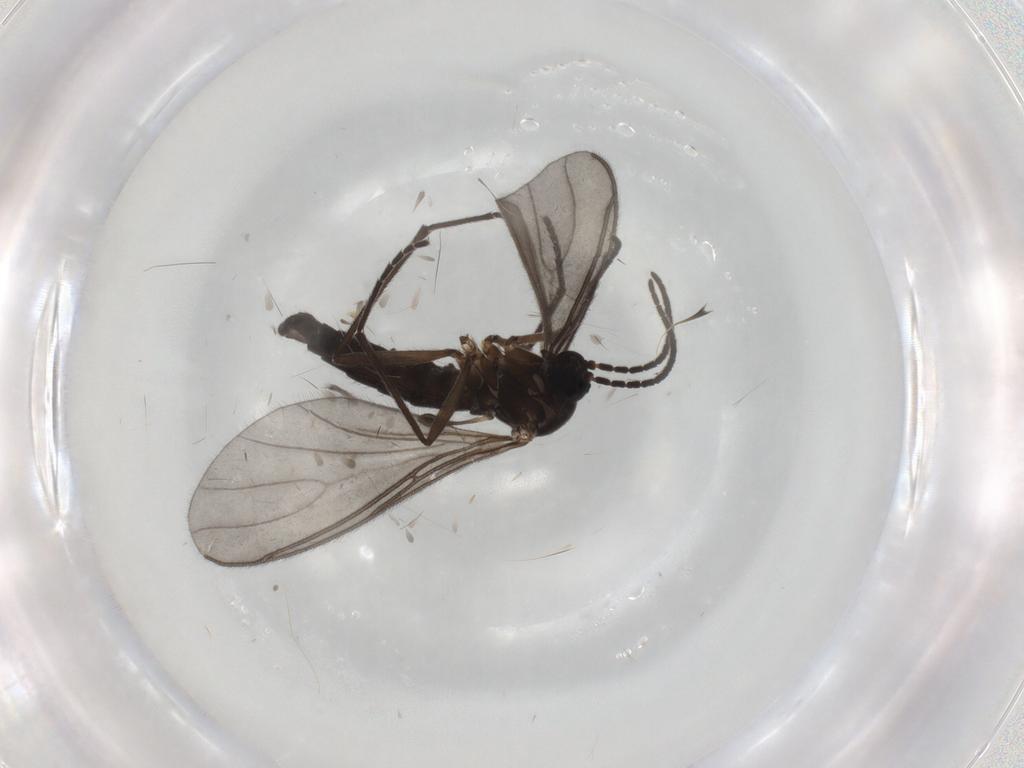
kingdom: Animalia
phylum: Arthropoda
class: Insecta
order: Diptera
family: Sciaridae
